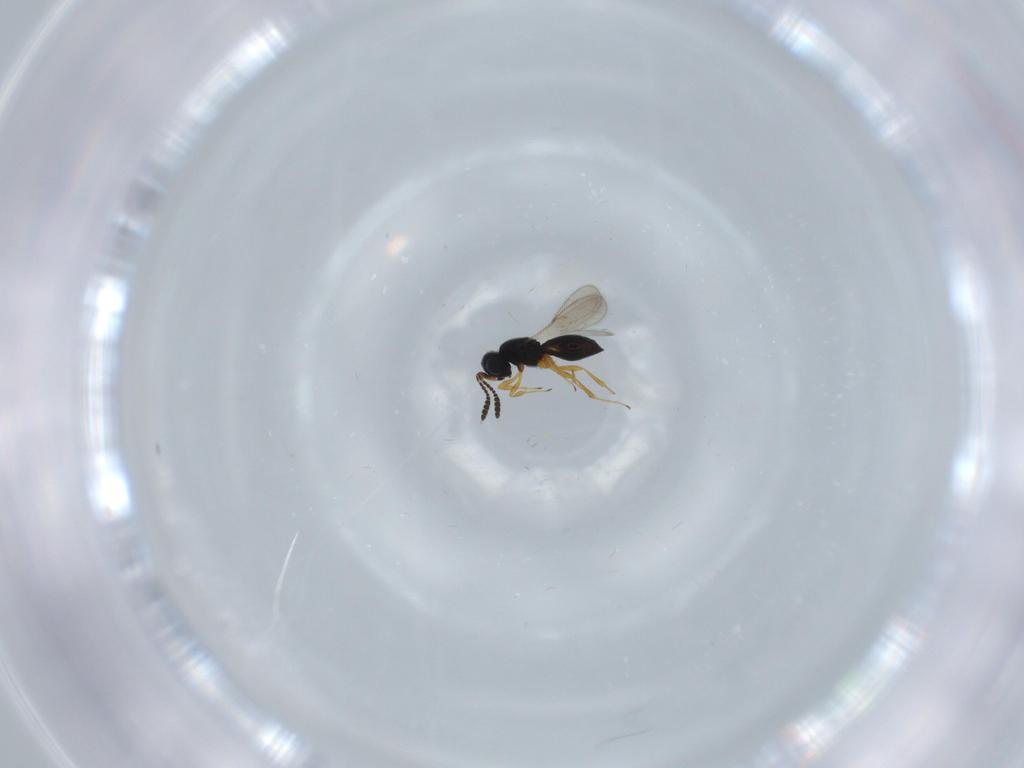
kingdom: Animalia
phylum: Arthropoda
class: Insecta
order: Hymenoptera
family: Scelionidae
